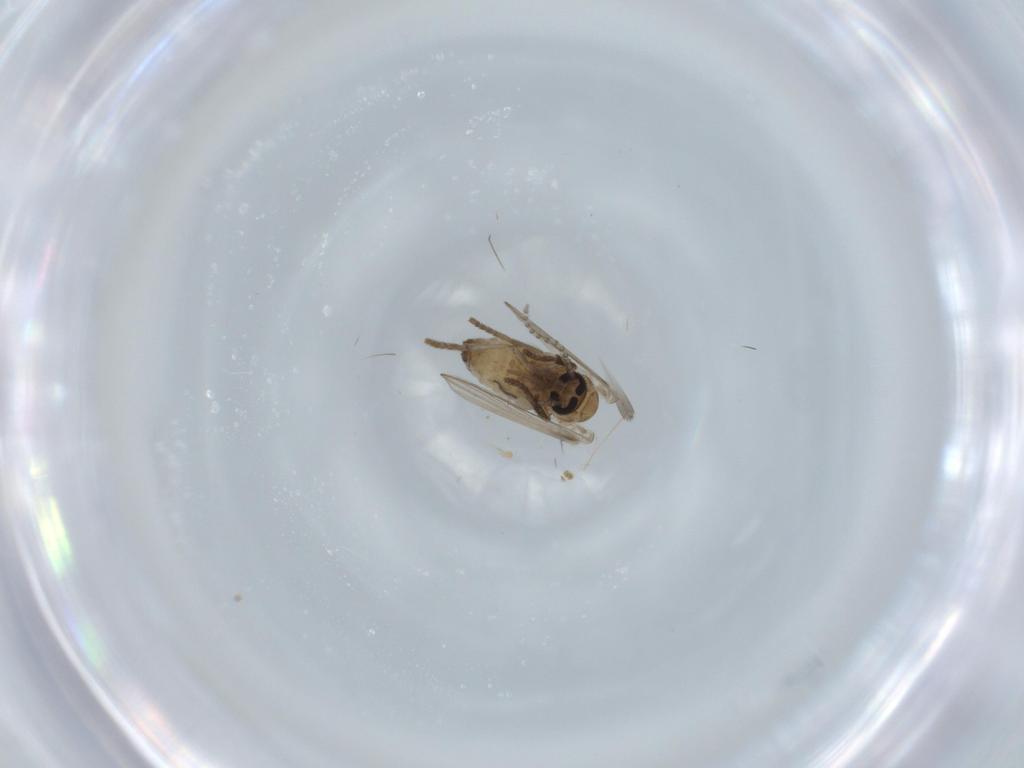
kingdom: Animalia
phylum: Arthropoda
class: Insecta
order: Diptera
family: Psychodidae
